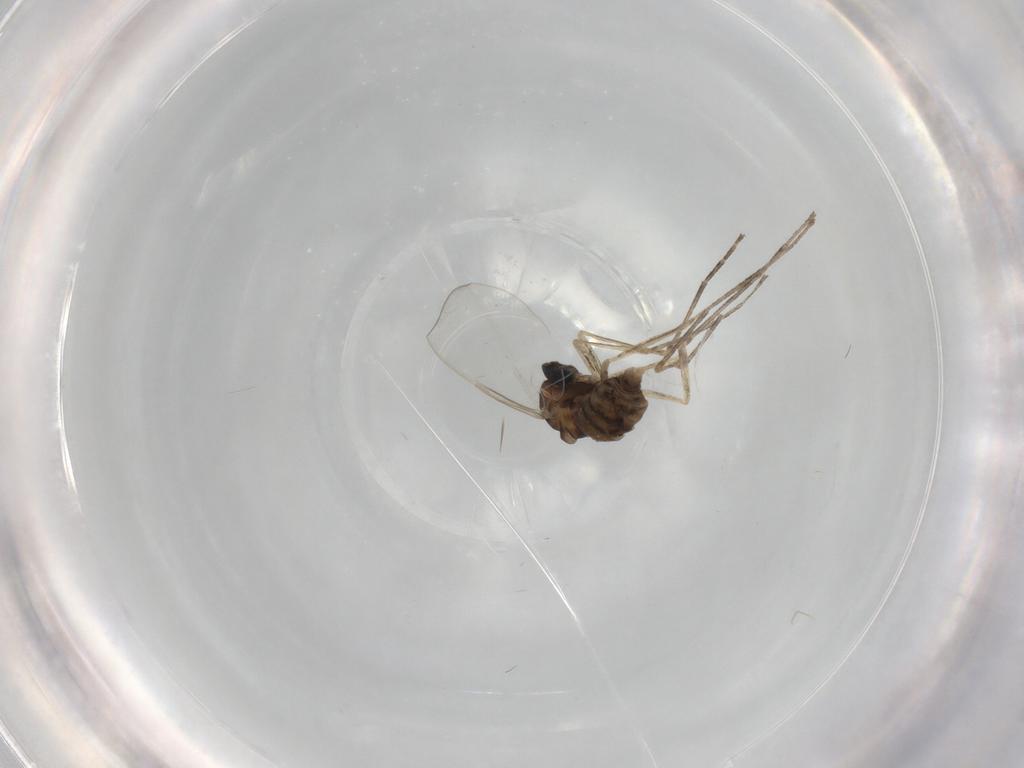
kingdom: Animalia
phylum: Arthropoda
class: Insecta
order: Diptera
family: Cecidomyiidae
